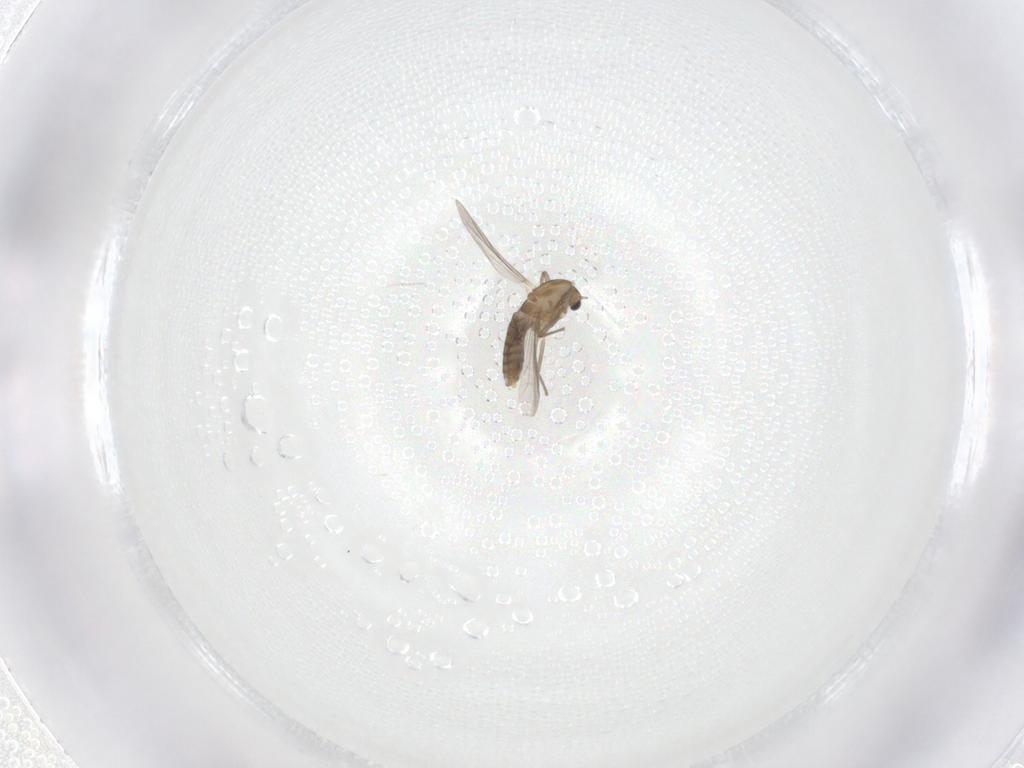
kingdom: Animalia
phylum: Arthropoda
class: Insecta
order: Diptera
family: Chironomidae
